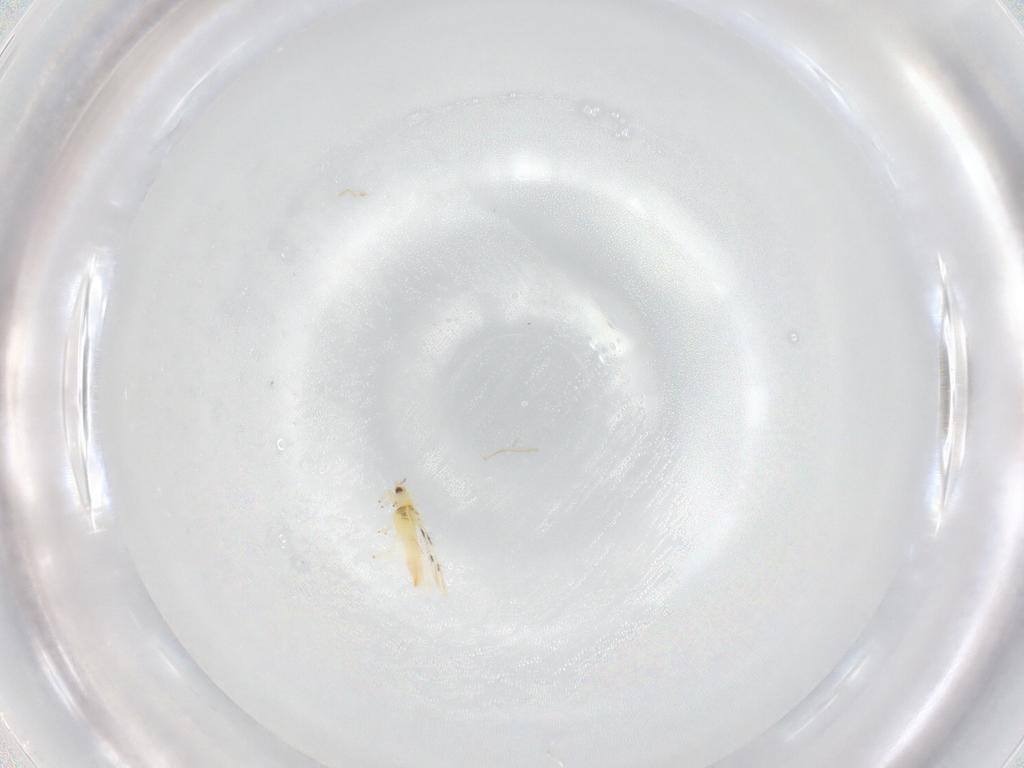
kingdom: Animalia
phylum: Arthropoda
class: Insecta
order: Thysanoptera
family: Thripidae
